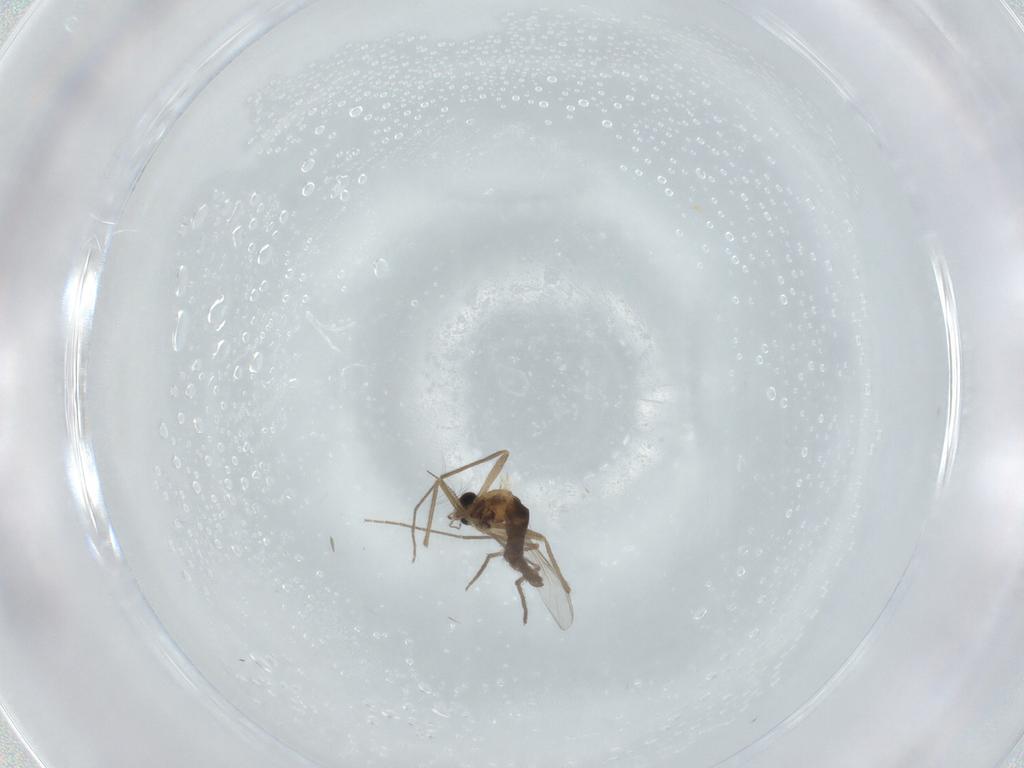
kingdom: Animalia
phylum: Arthropoda
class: Insecta
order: Diptera
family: Chironomidae
